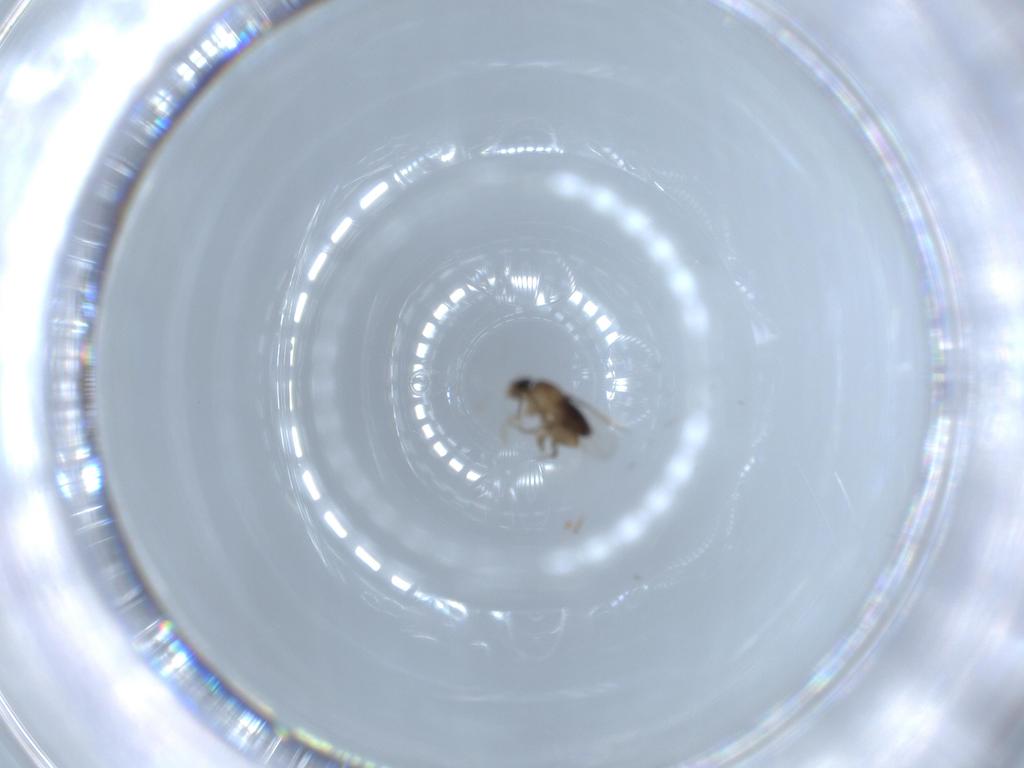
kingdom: Animalia
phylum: Arthropoda
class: Insecta
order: Diptera
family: Phoridae
